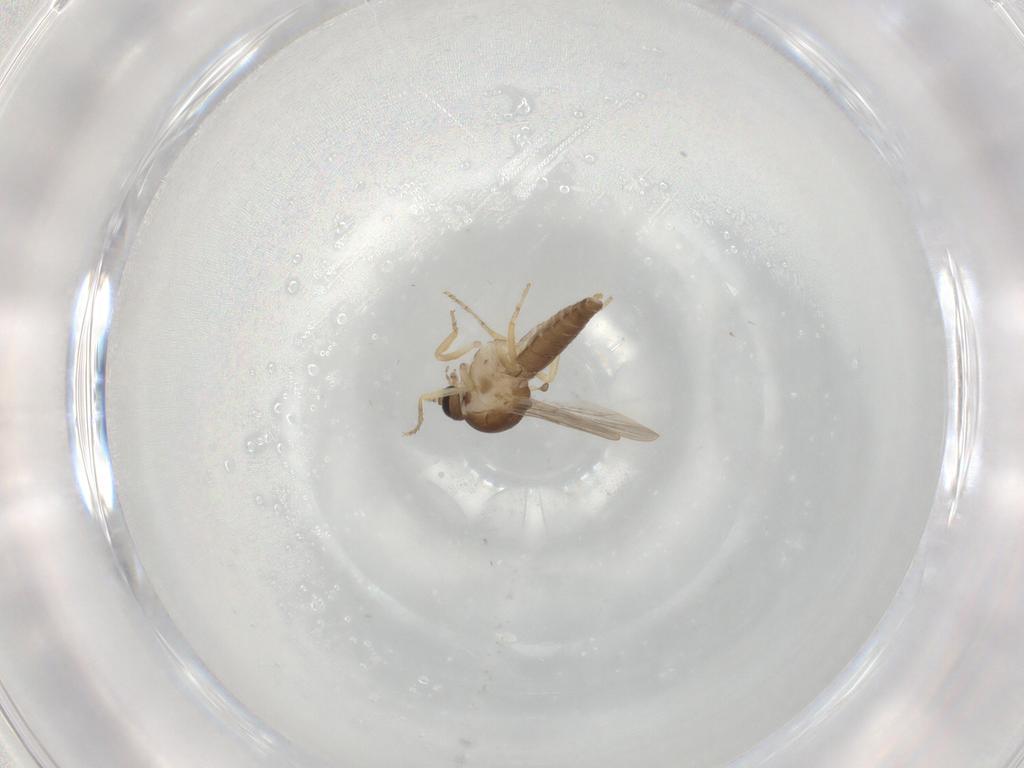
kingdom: Animalia
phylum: Arthropoda
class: Insecta
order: Diptera
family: Ceratopogonidae
